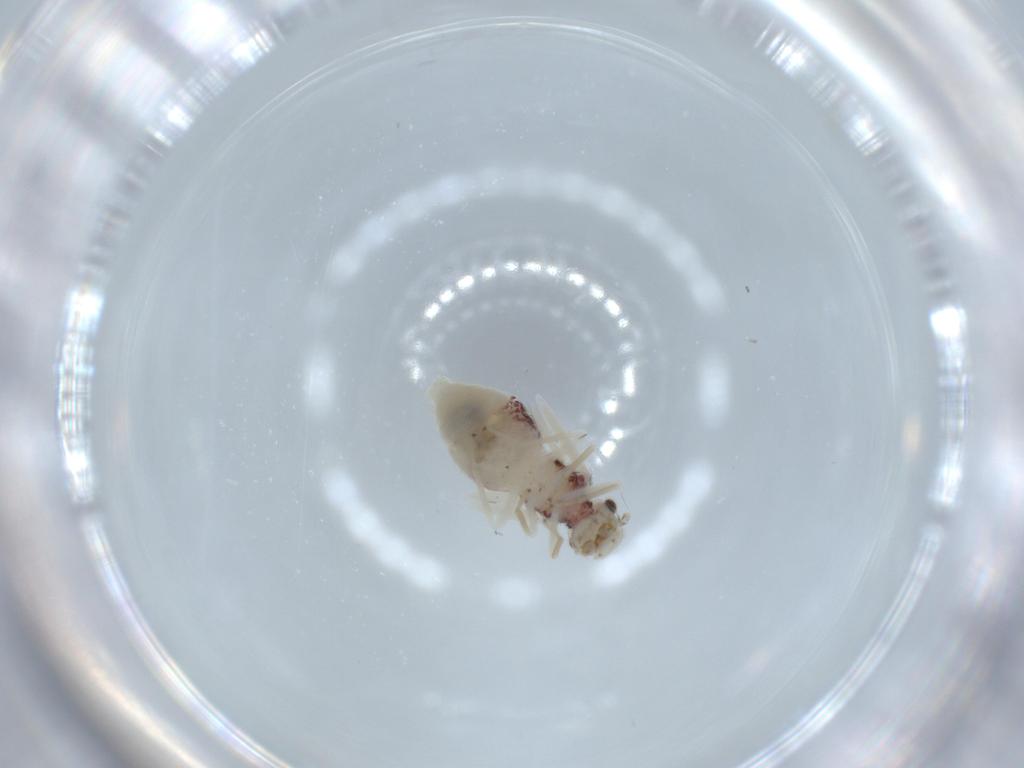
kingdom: Animalia
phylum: Arthropoda
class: Insecta
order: Psocodea
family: Caeciliusidae
